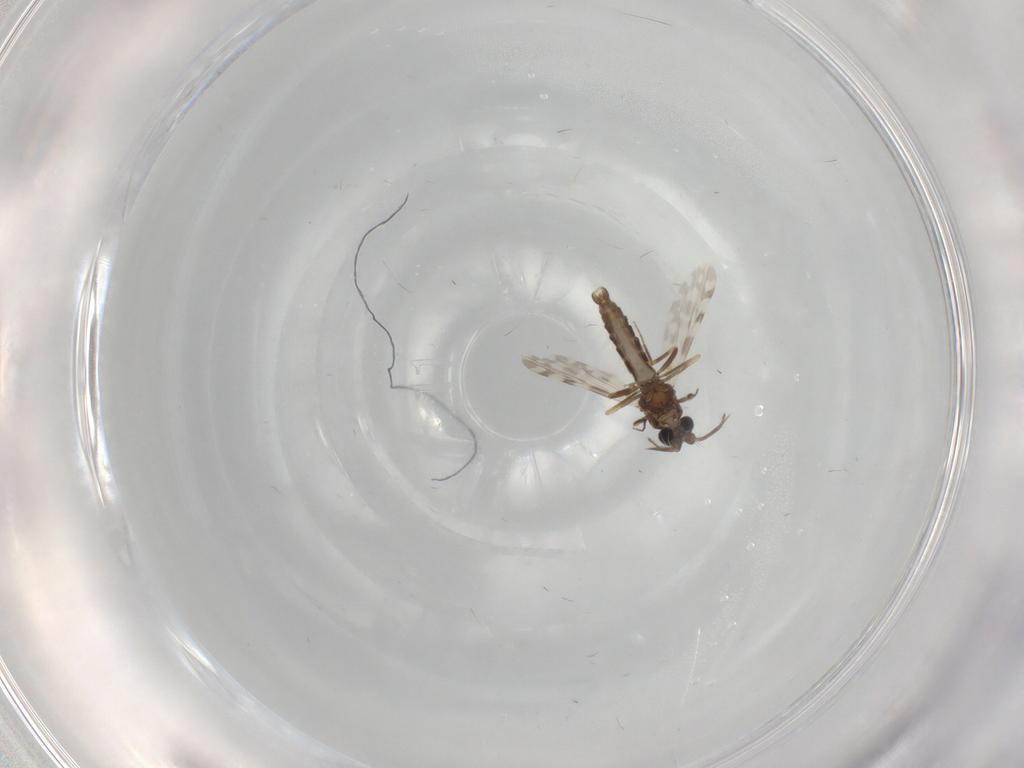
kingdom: Animalia
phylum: Arthropoda
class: Insecta
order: Diptera
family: Ceratopogonidae
